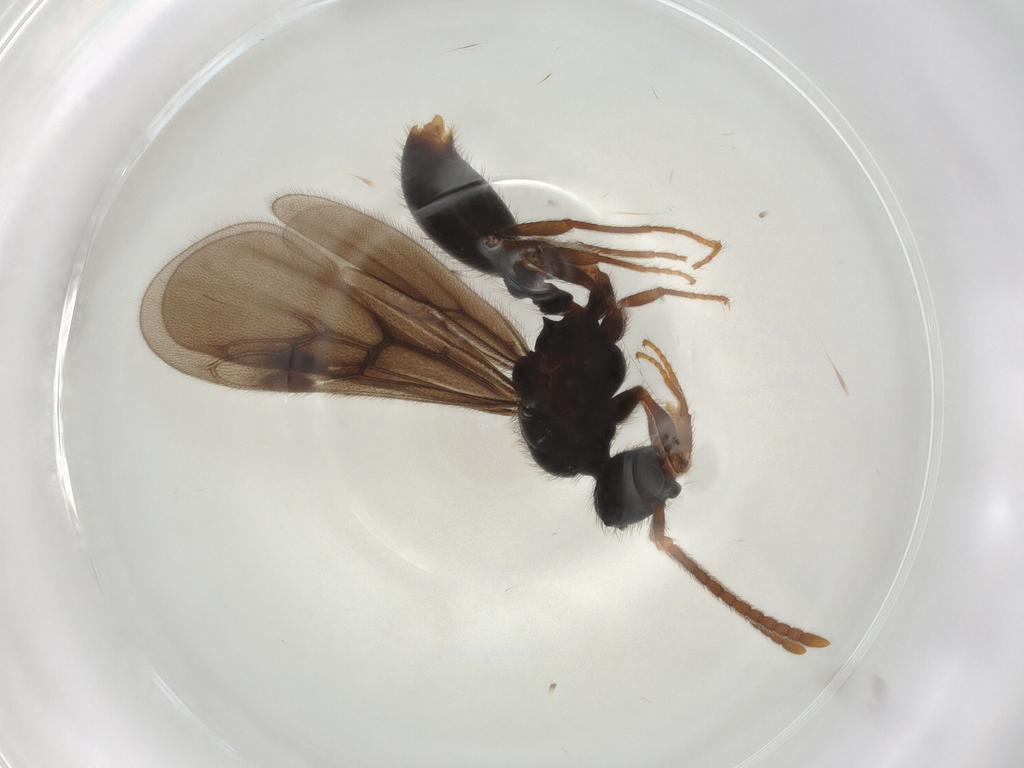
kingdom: Animalia
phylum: Arthropoda
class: Insecta
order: Hymenoptera
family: Formicidae
